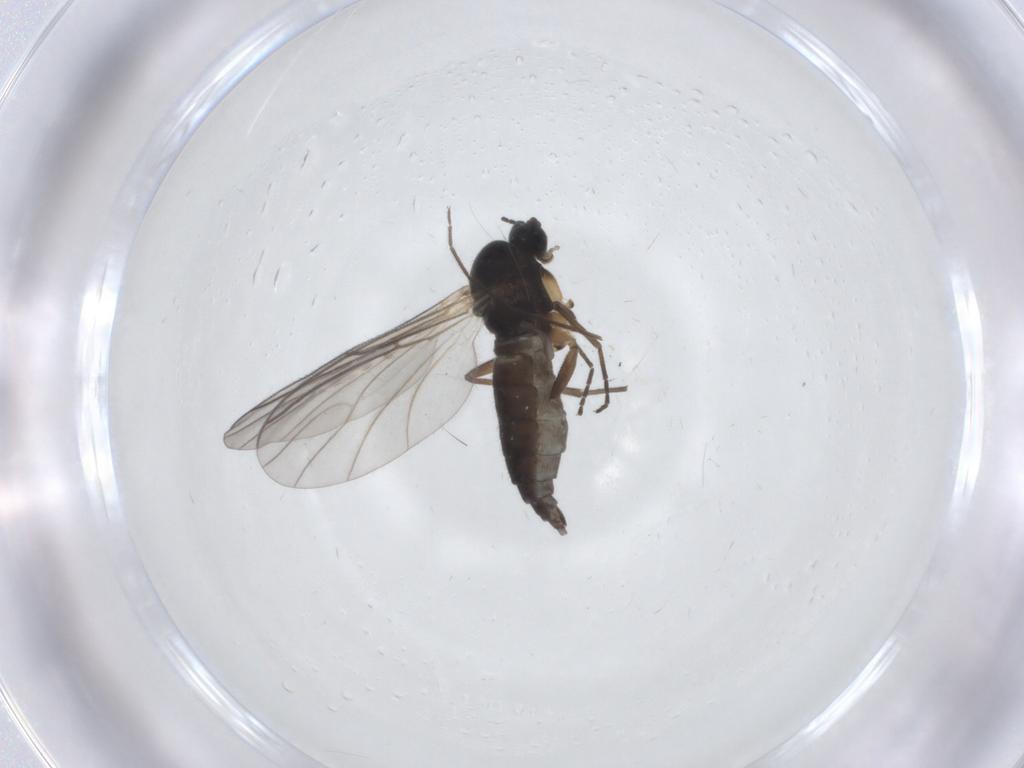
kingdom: Animalia
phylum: Arthropoda
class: Insecta
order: Diptera
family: Sciaridae
